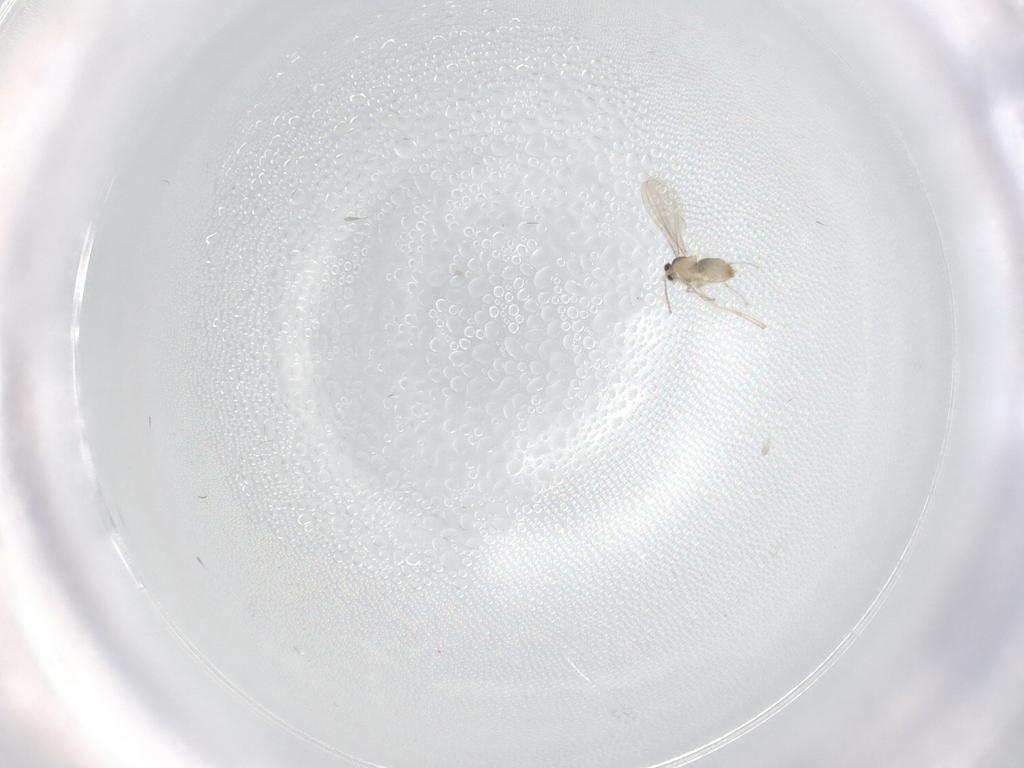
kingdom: Animalia
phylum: Arthropoda
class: Insecta
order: Diptera
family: Cecidomyiidae
